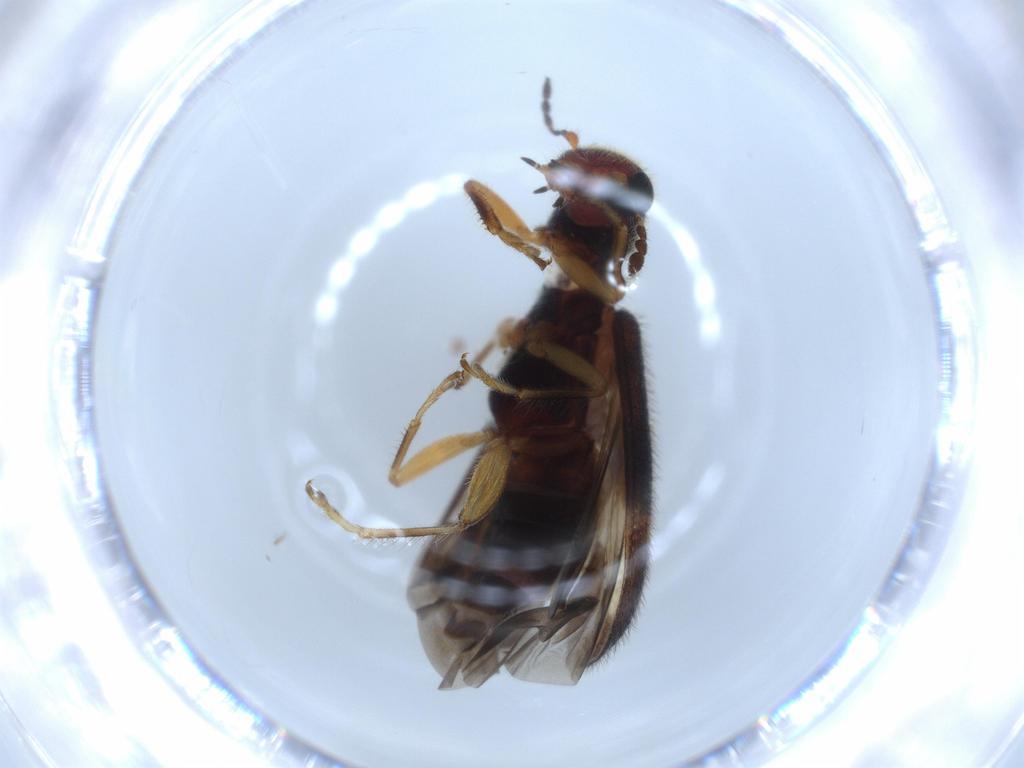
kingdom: Animalia
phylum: Arthropoda
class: Insecta
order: Coleoptera
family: Cleridae
